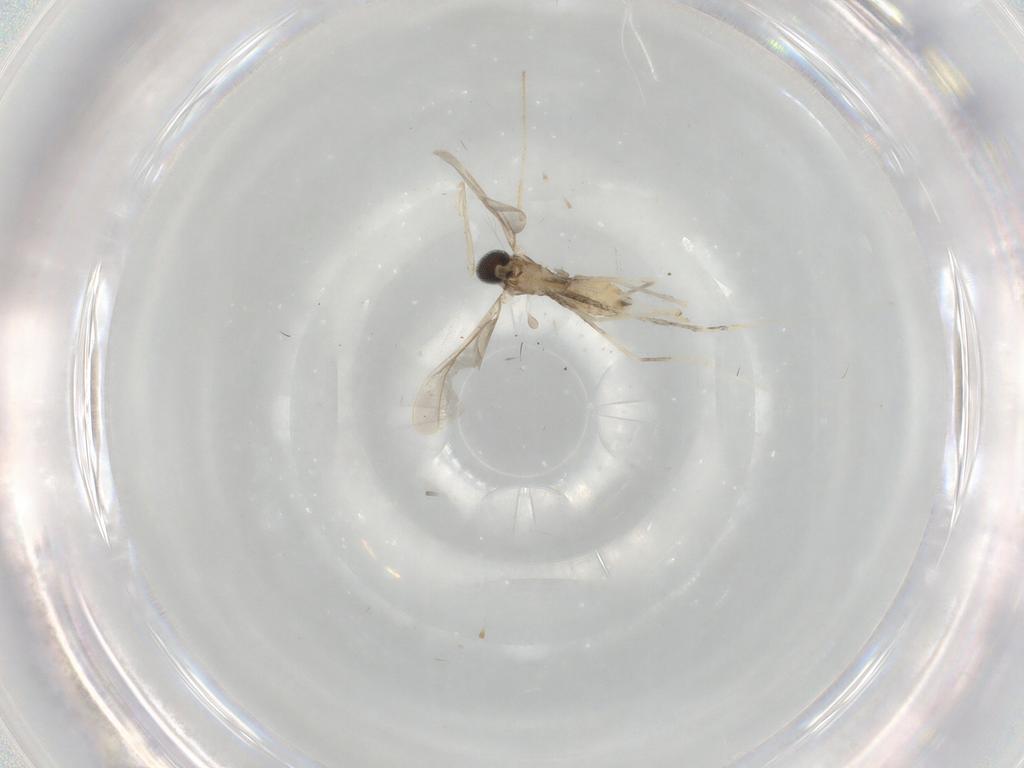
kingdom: Animalia
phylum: Arthropoda
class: Insecta
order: Diptera
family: Cecidomyiidae
